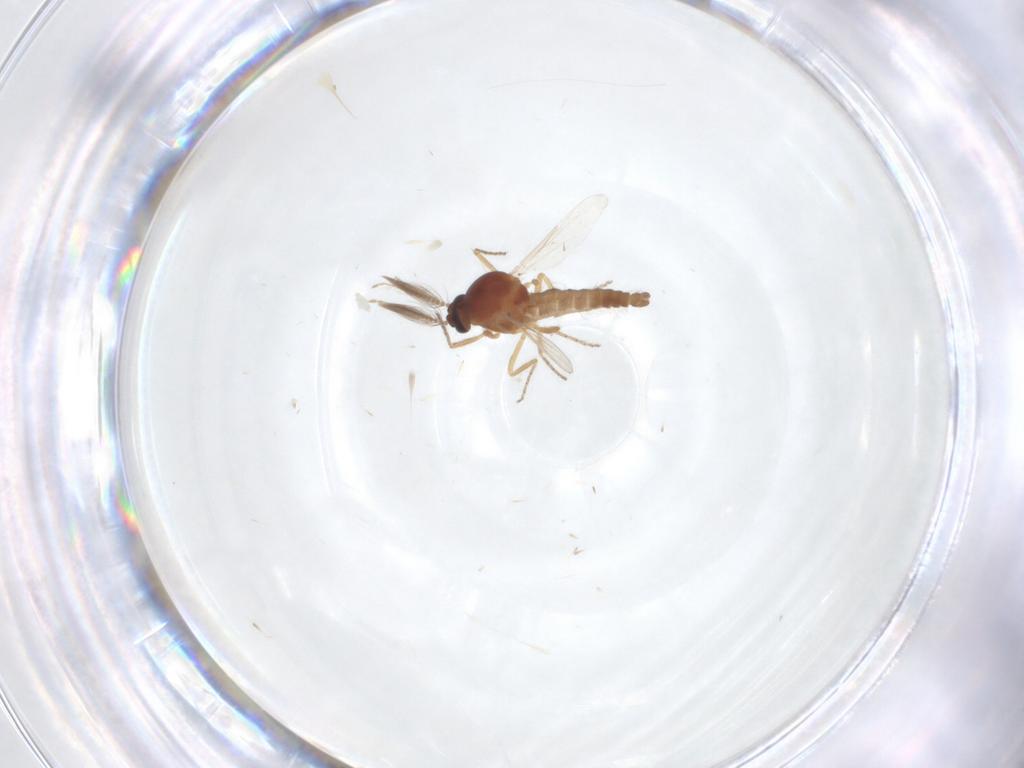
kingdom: Animalia
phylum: Arthropoda
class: Insecta
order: Diptera
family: Ceratopogonidae
